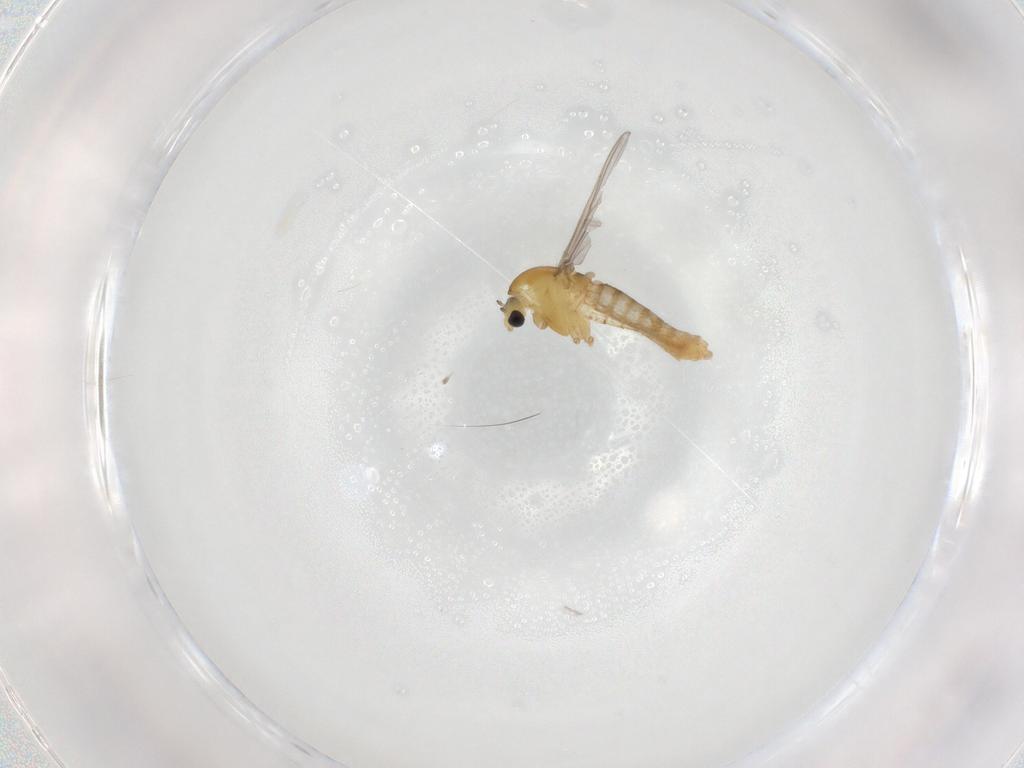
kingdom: Animalia
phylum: Arthropoda
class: Insecta
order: Diptera
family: Chironomidae
